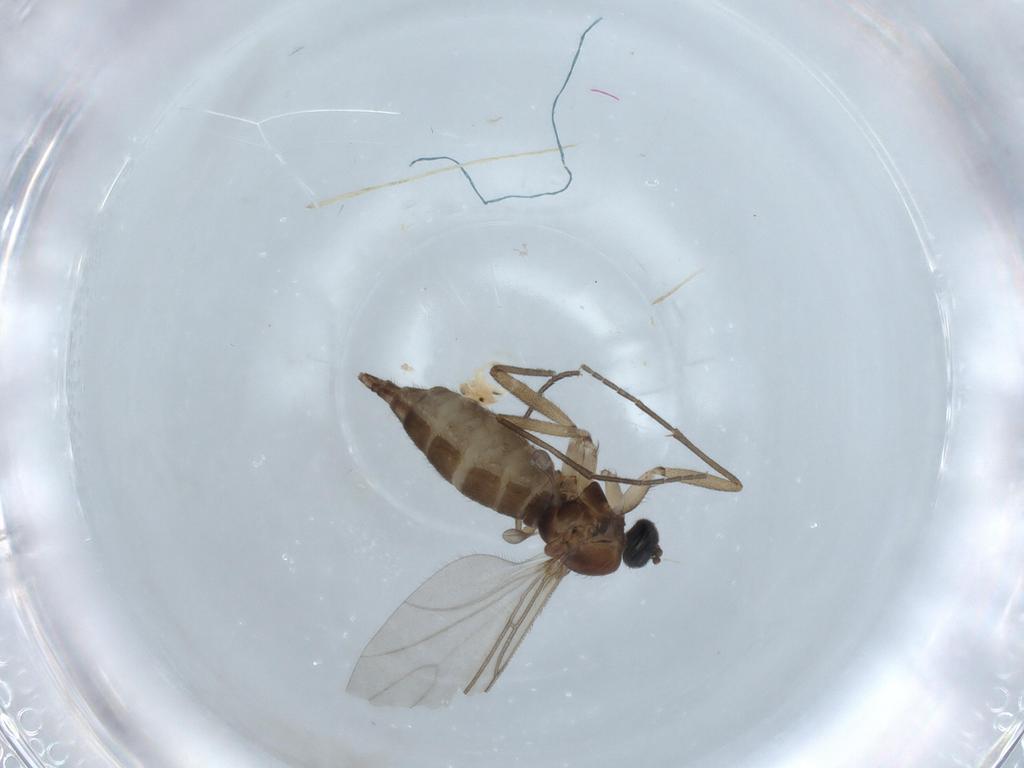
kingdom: Animalia
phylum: Arthropoda
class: Insecta
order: Diptera
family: Sciaridae
